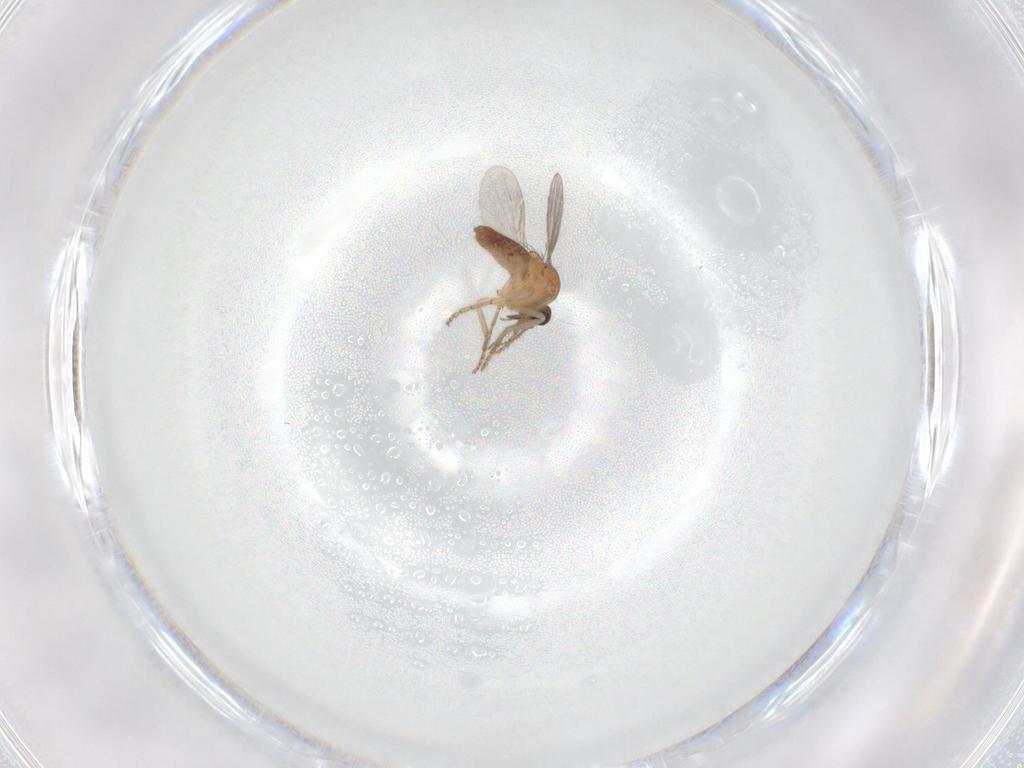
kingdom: Animalia
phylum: Arthropoda
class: Insecta
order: Diptera
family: Ceratopogonidae
